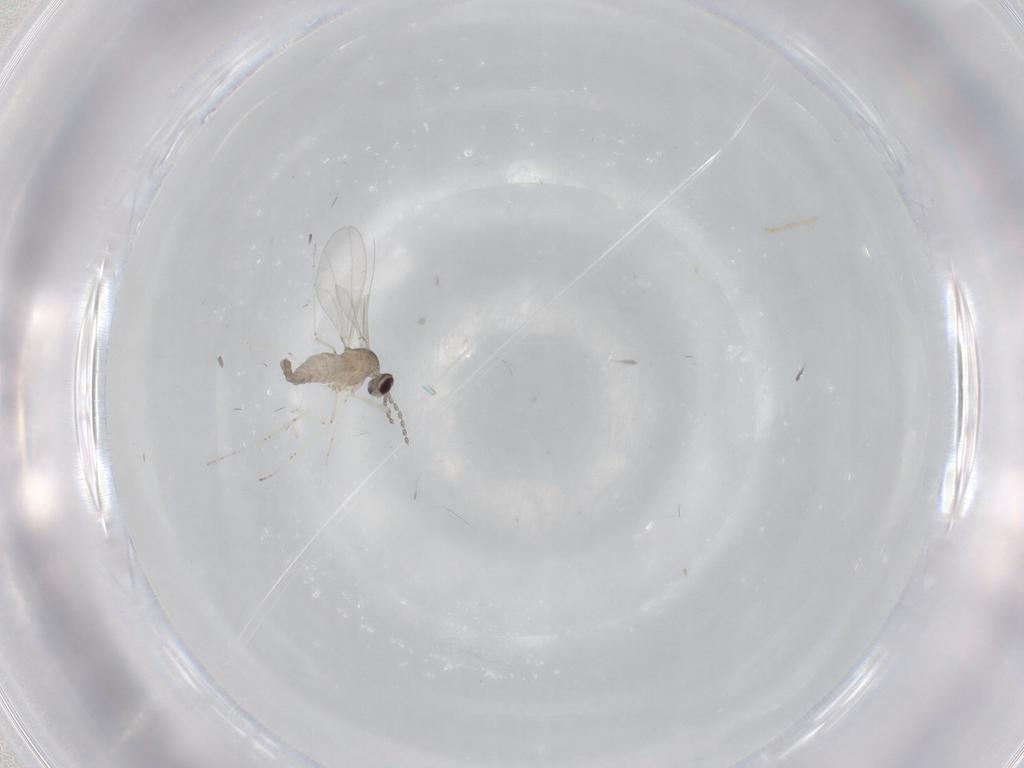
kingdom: Animalia
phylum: Arthropoda
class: Insecta
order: Diptera
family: Cecidomyiidae
